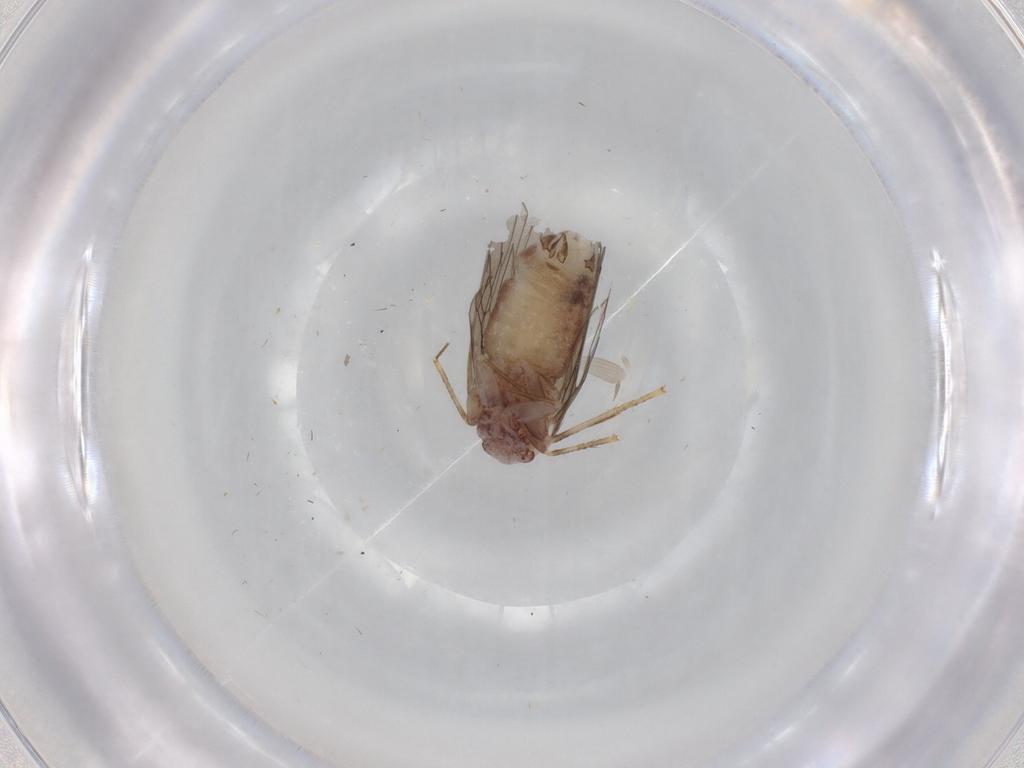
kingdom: Animalia
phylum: Arthropoda
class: Insecta
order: Psocodea
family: Lepidopsocidae
